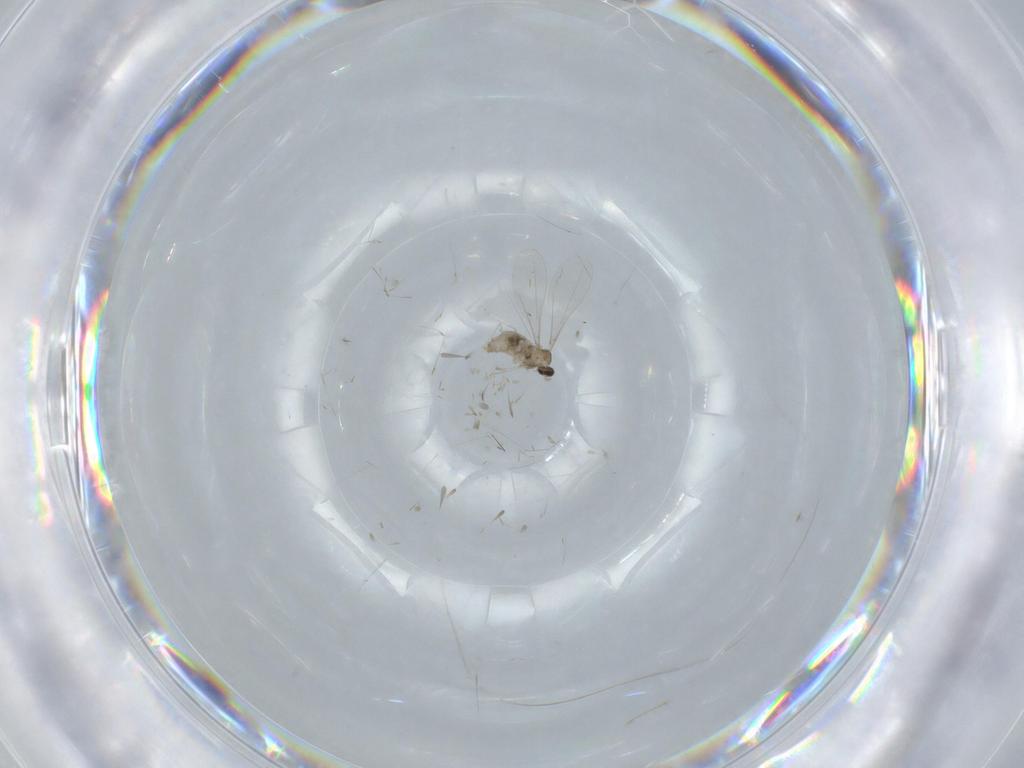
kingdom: Animalia
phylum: Arthropoda
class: Insecta
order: Diptera
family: Cecidomyiidae
